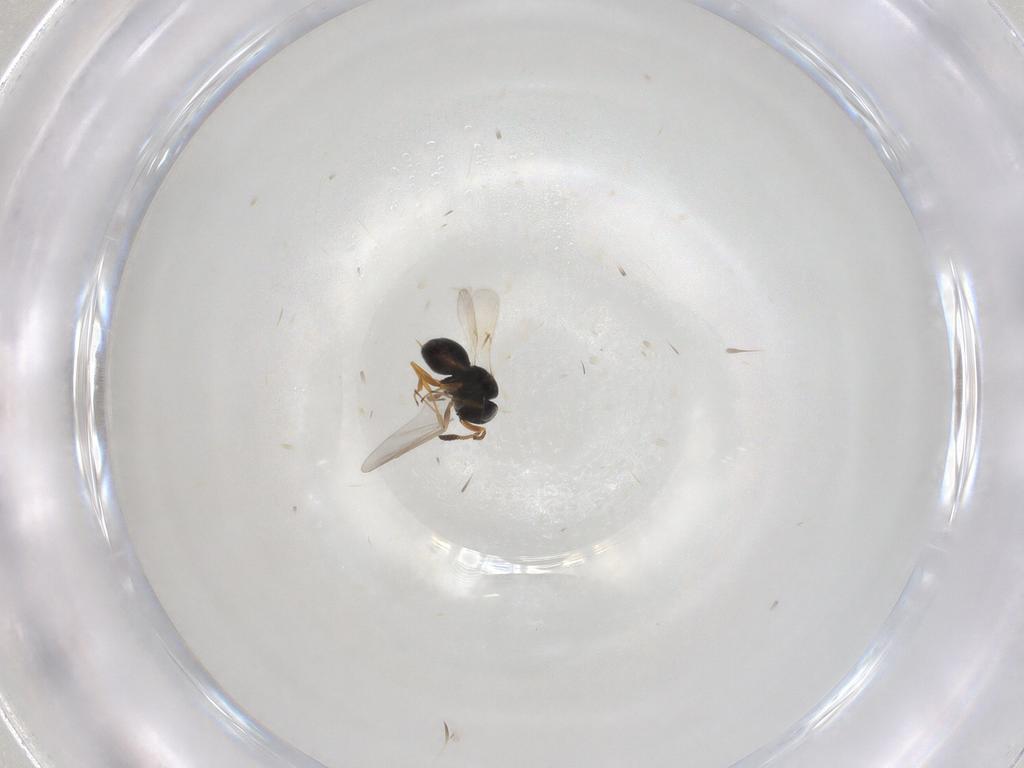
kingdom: Animalia
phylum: Arthropoda
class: Insecta
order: Hymenoptera
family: Scelionidae
